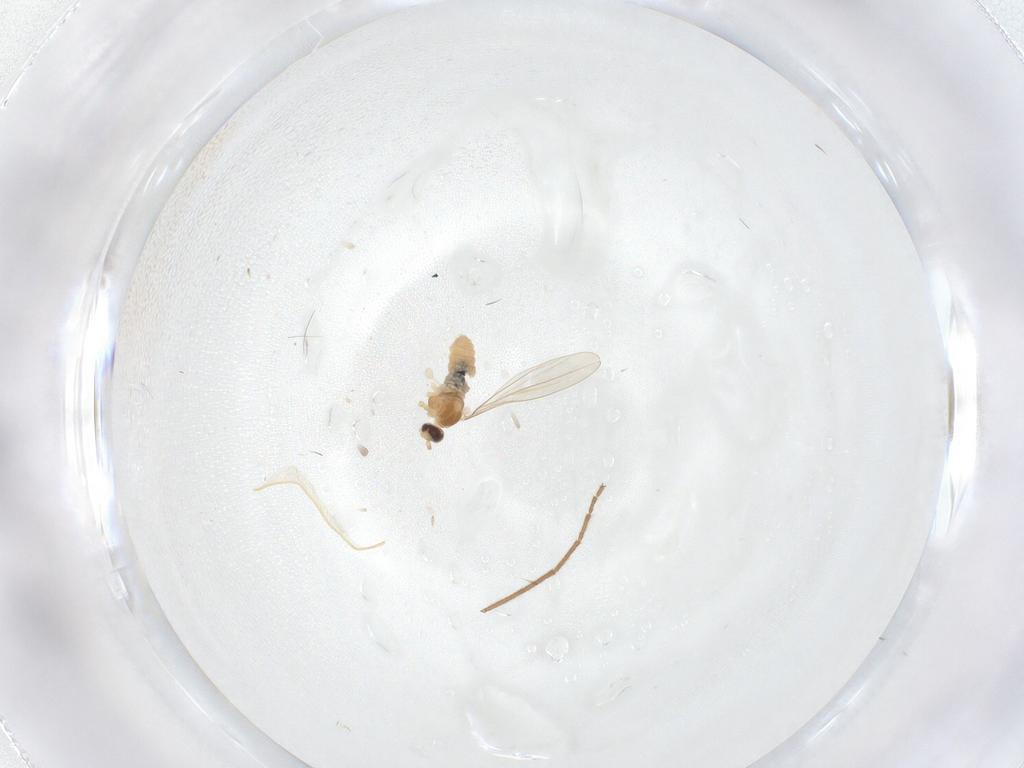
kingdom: Animalia
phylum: Arthropoda
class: Insecta
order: Diptera
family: Cecidomyiidae
